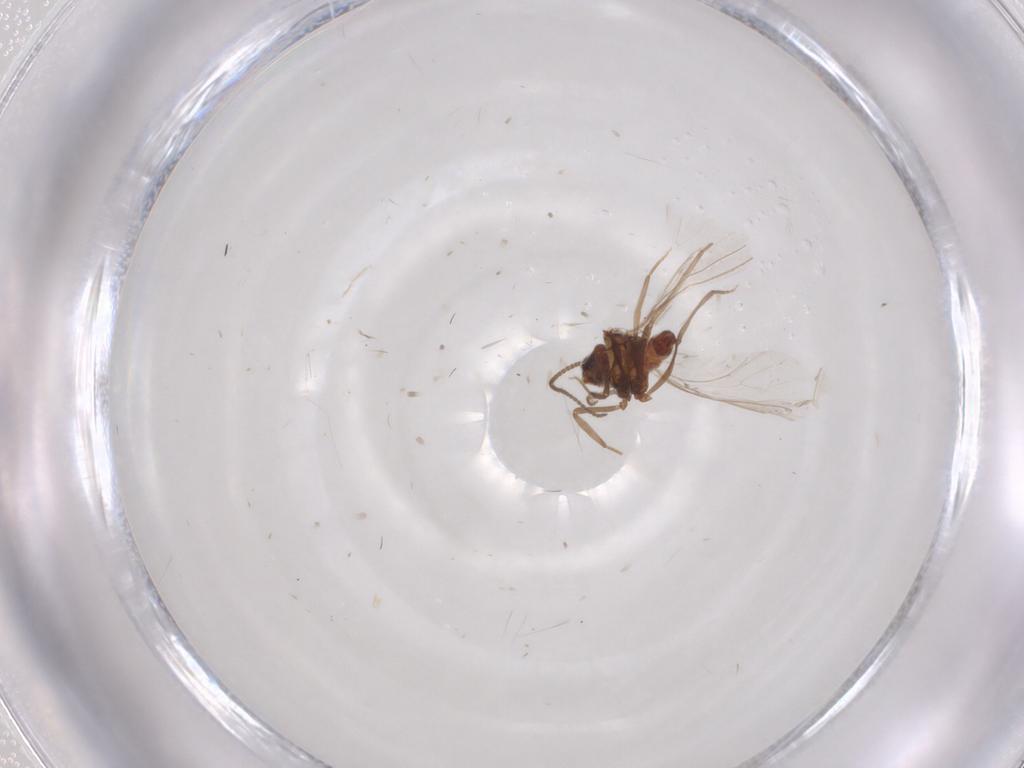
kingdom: Animalia
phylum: Arthropoda
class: Insecta
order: Neuroptera
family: Coniopterygidae
